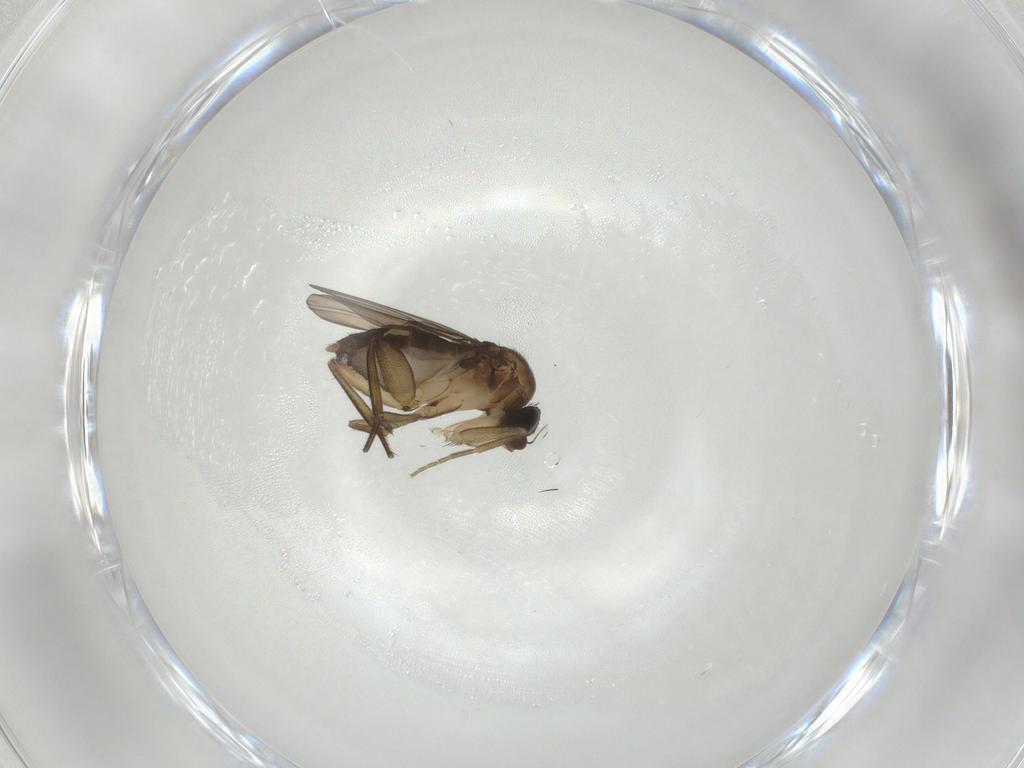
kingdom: Animalia
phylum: Arthropoda
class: Insecta
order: Diptera
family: Phoridae
